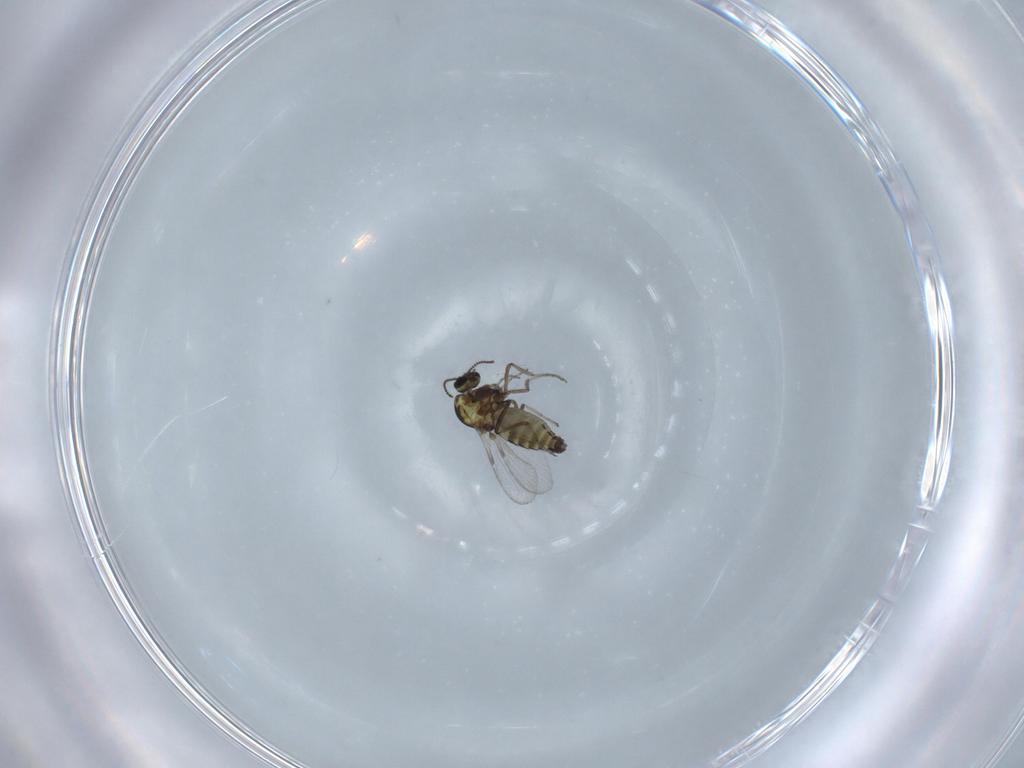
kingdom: Animalia
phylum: Arthropoda
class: Insecta
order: Diptera
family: Ceratopogonidae
